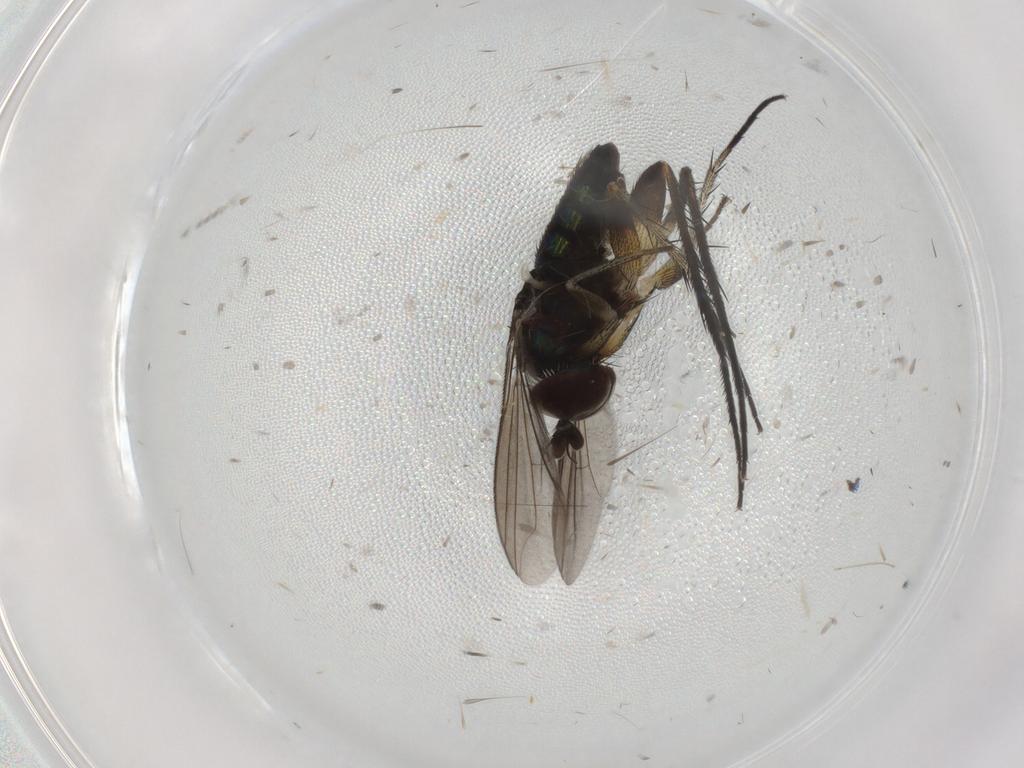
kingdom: Animalia
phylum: Arthropoda
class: Insecta
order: Diptera
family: Dolichopodidae
